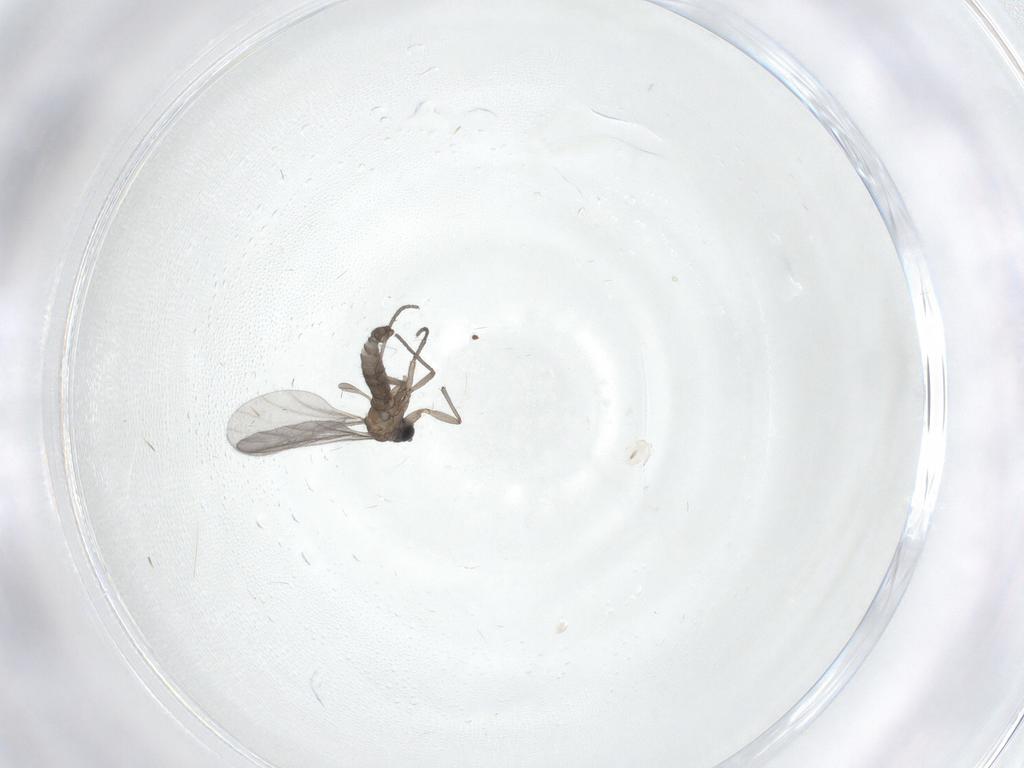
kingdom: Animalia
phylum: Arthropoda
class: Insecta
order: Diptera
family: Sciaridae
